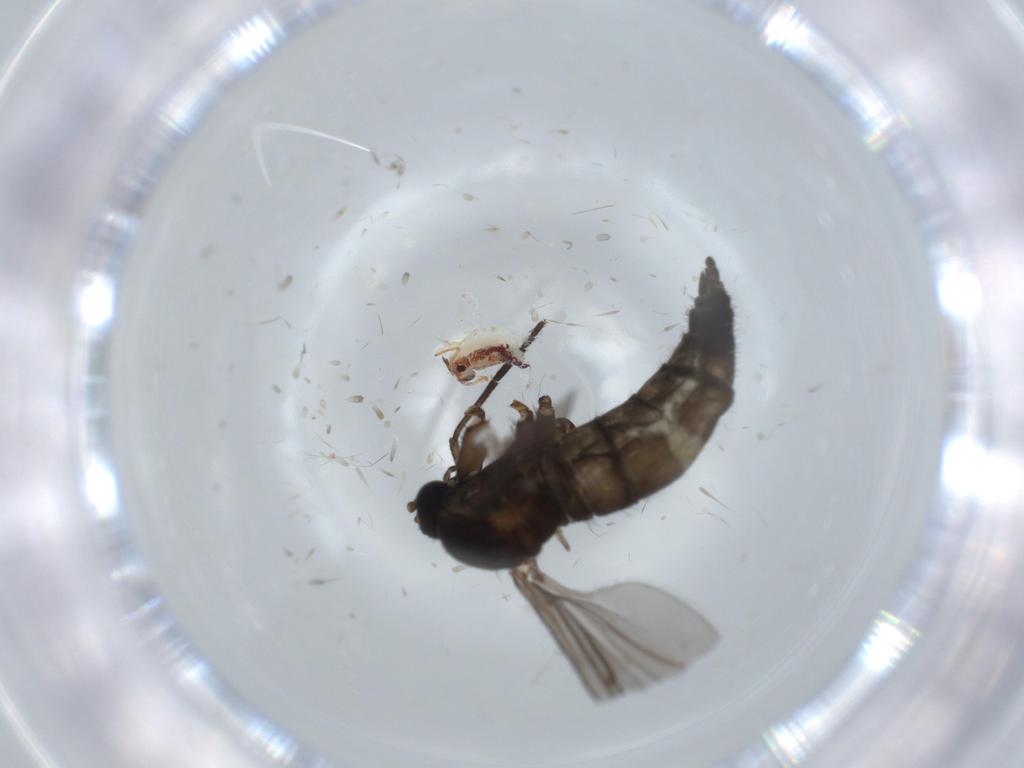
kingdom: Animalia
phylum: Arthropoda
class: Insecta
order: Diptera
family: Sciaridae
